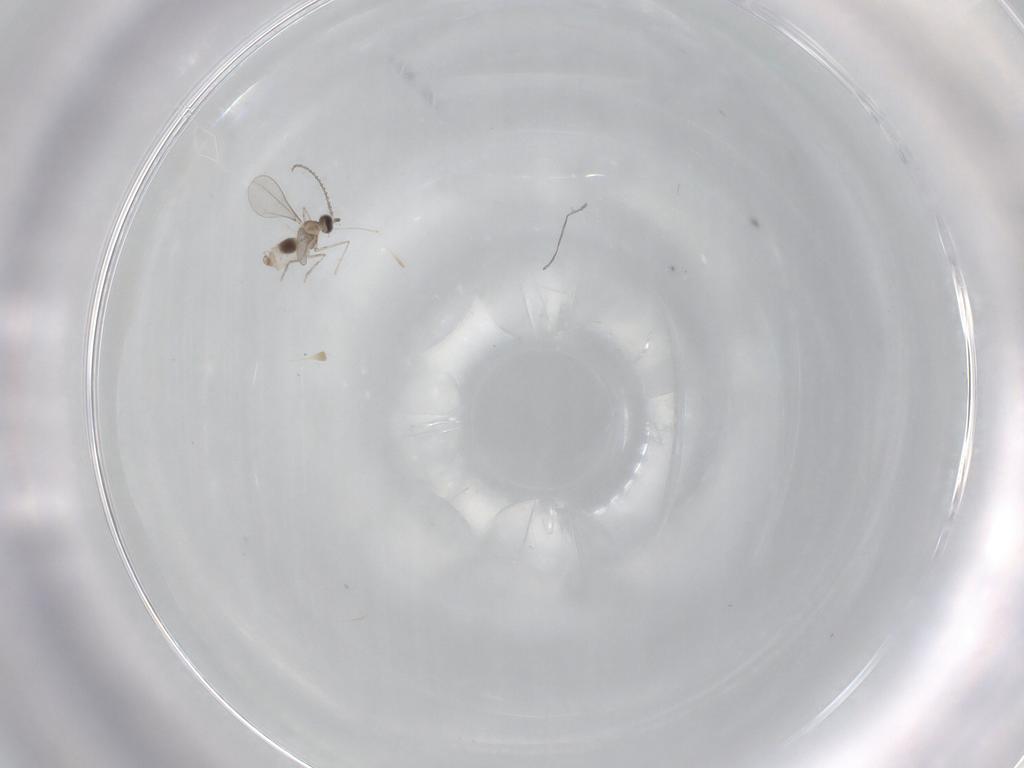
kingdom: Animalia
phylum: Arthropoda
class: Insecta
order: Diptera
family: Cecidomyiidae
